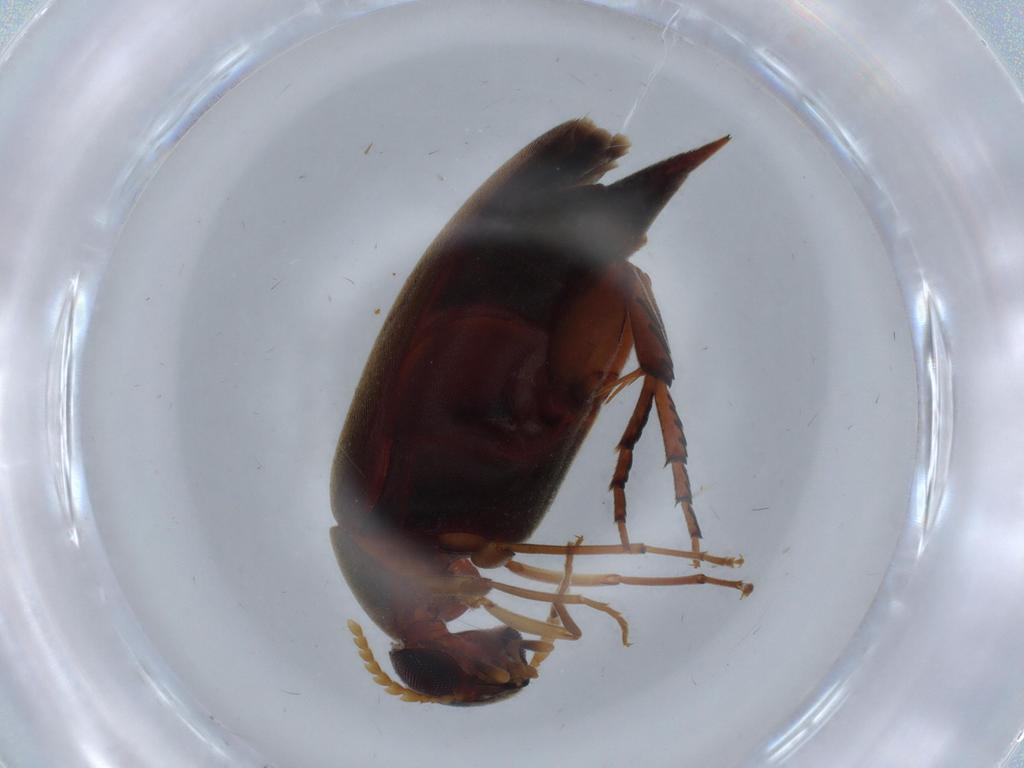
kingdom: Animalia
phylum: Arthropoda
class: Insecta
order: Coleoptera
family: Mordellidae
